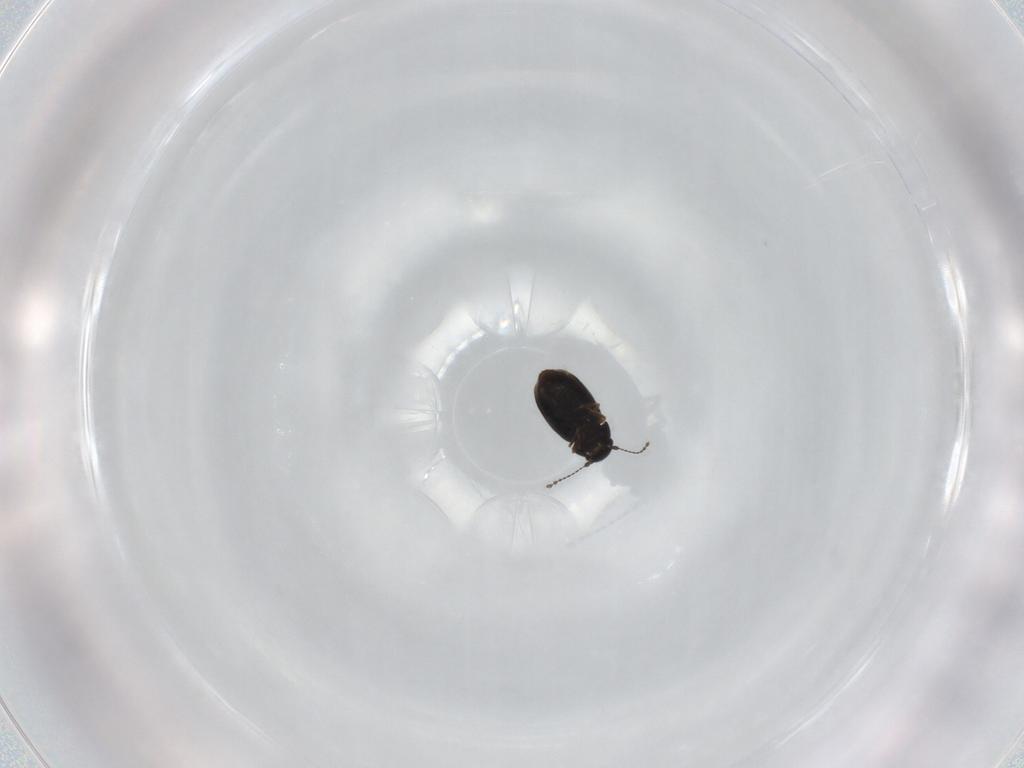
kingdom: Animalia
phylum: Arthropoda
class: Insecta
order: Coleoptera
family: Ptiliidae
